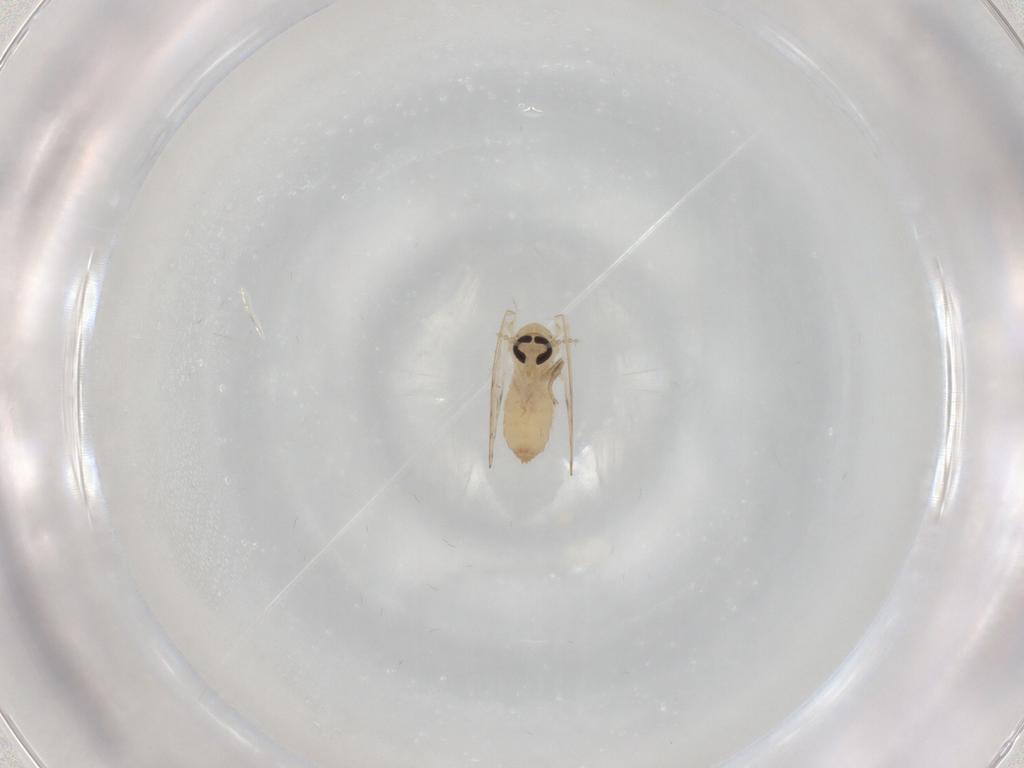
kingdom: Animalia
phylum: Arthropoda
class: Insecta
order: Diptera
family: Psychodidae
